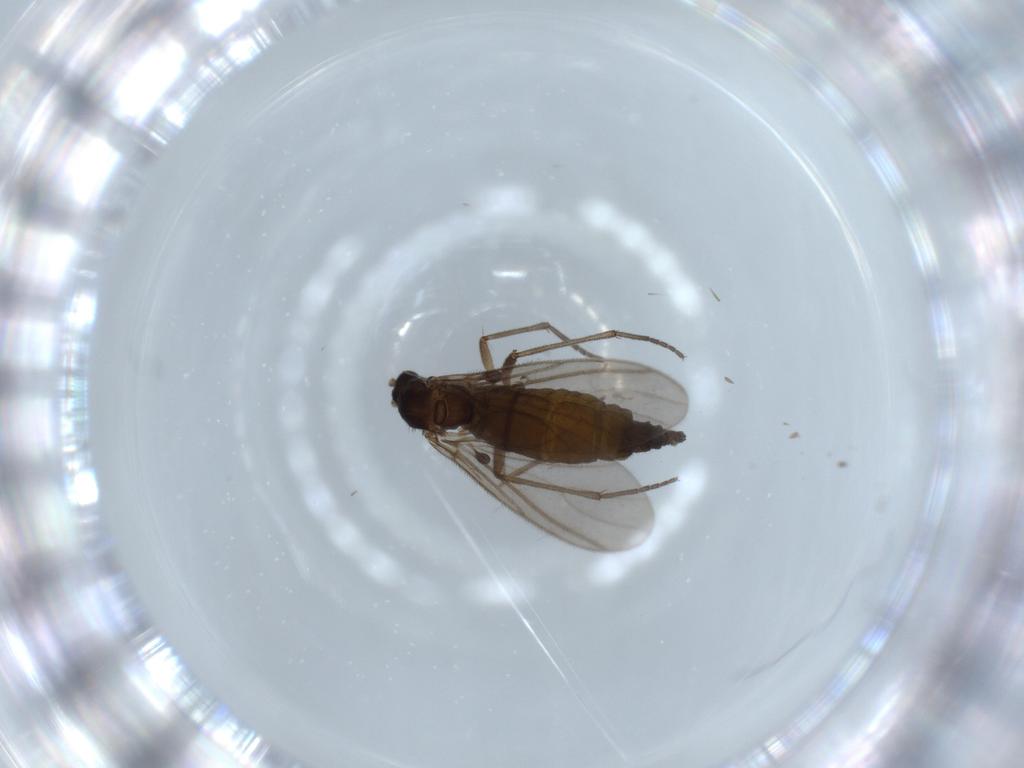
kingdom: Animalia
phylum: Arthropoda
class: Insecta
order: Diptera
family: Sciaridae
